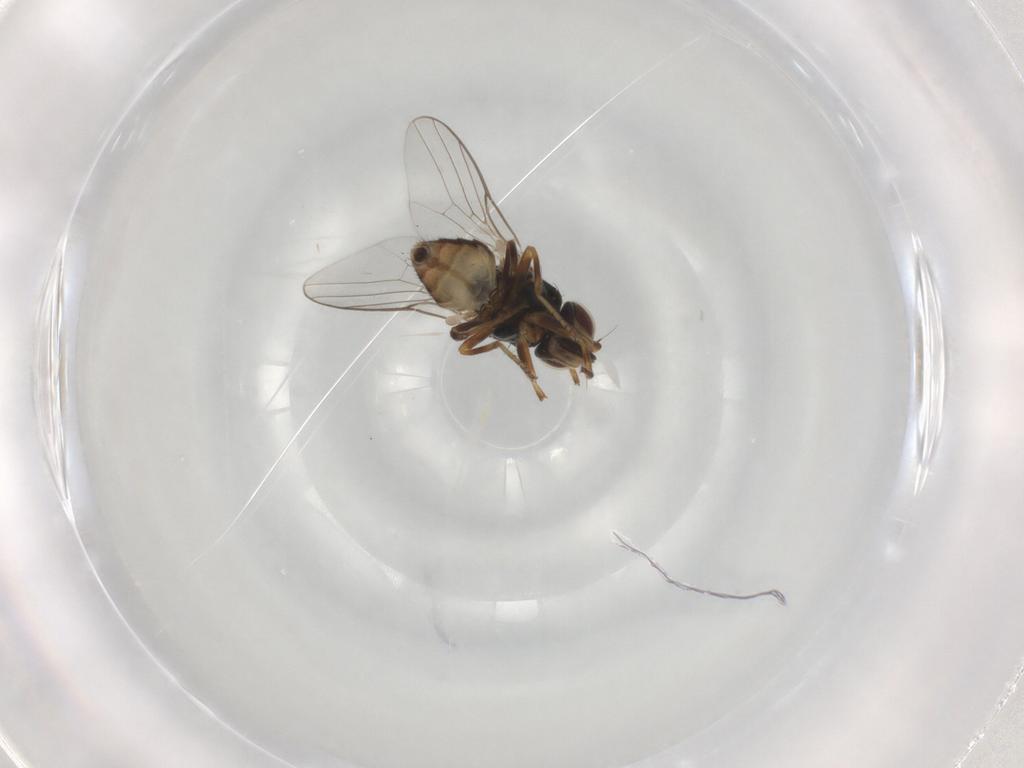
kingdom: Animalia
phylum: Arthropoda
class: Insecta
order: Diptera
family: Chloropidae
